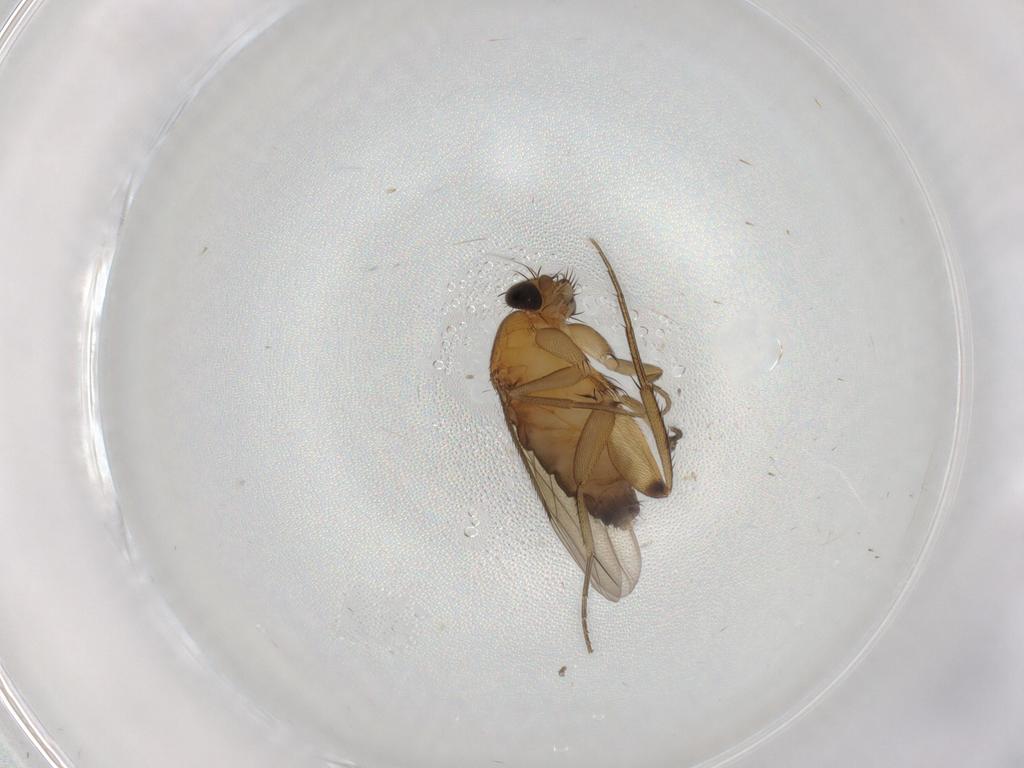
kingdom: Animalia
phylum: Arthropoda
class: Insecta
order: Diptera
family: Phoridae
